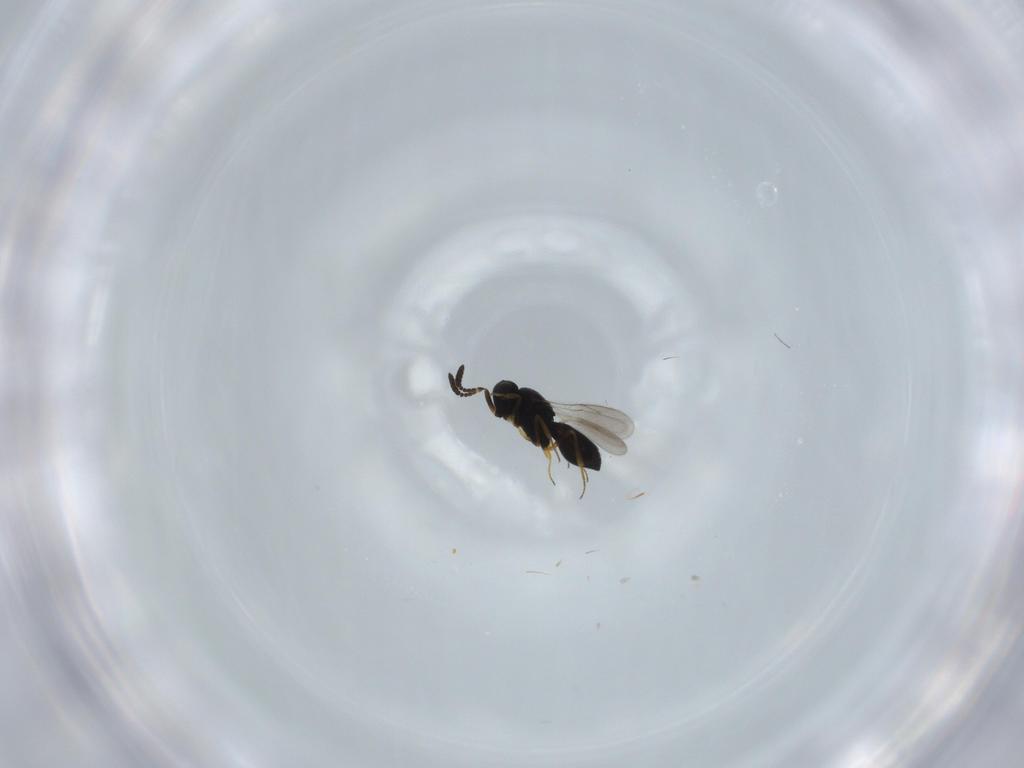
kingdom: Animalia
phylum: Arthropoda
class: Insecta
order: Hymenoptera
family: Scelionidae
